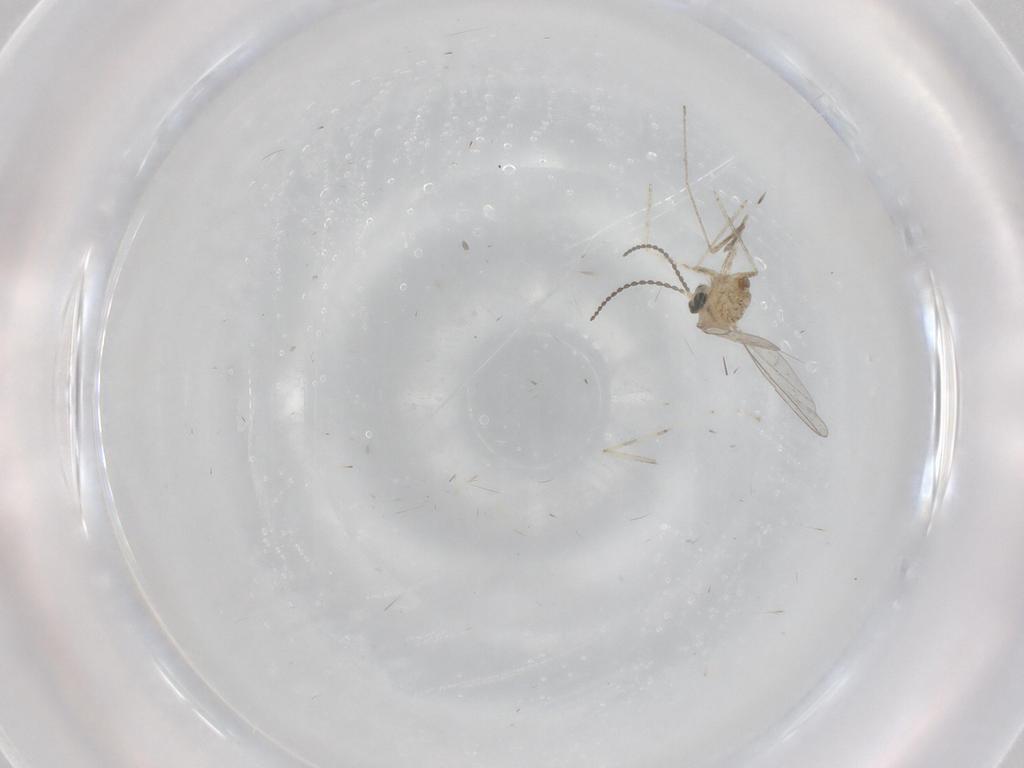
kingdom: Animalia
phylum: Arthropoda
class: Insecta
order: Diptera
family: Cecidomyiidae
